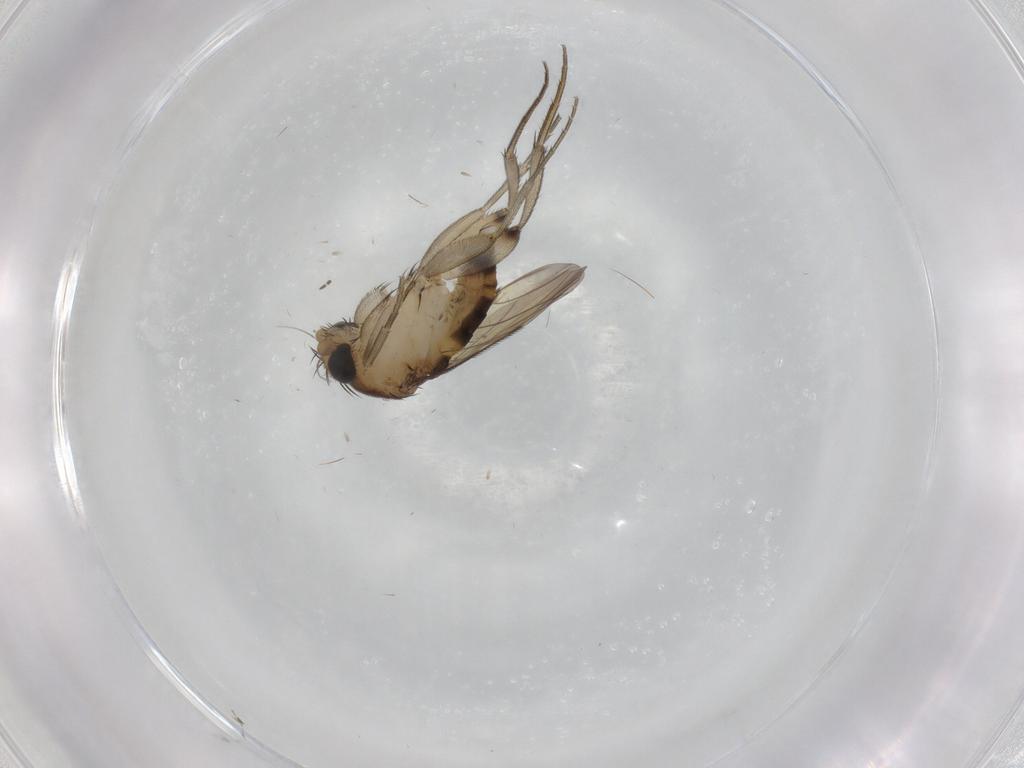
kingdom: Animalia
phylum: Arthropoda
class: Insecta
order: Diptera
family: Phoridae
